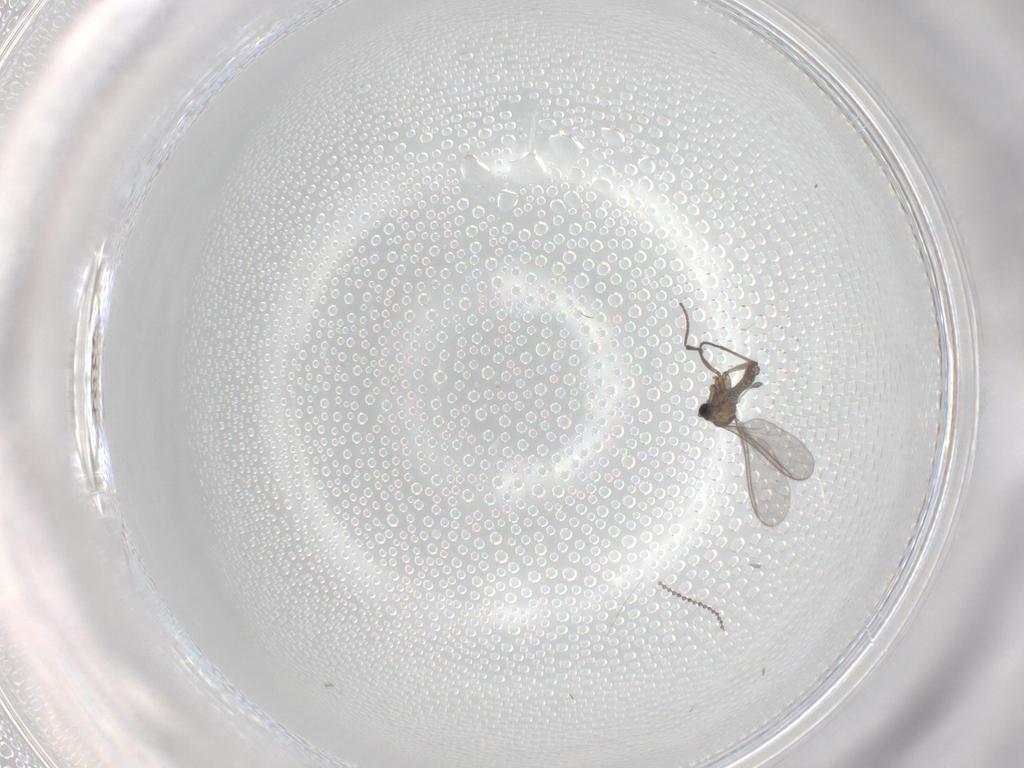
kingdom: Animalia
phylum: Arthropoda
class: Insecta
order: Diptera
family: Sciaridae
